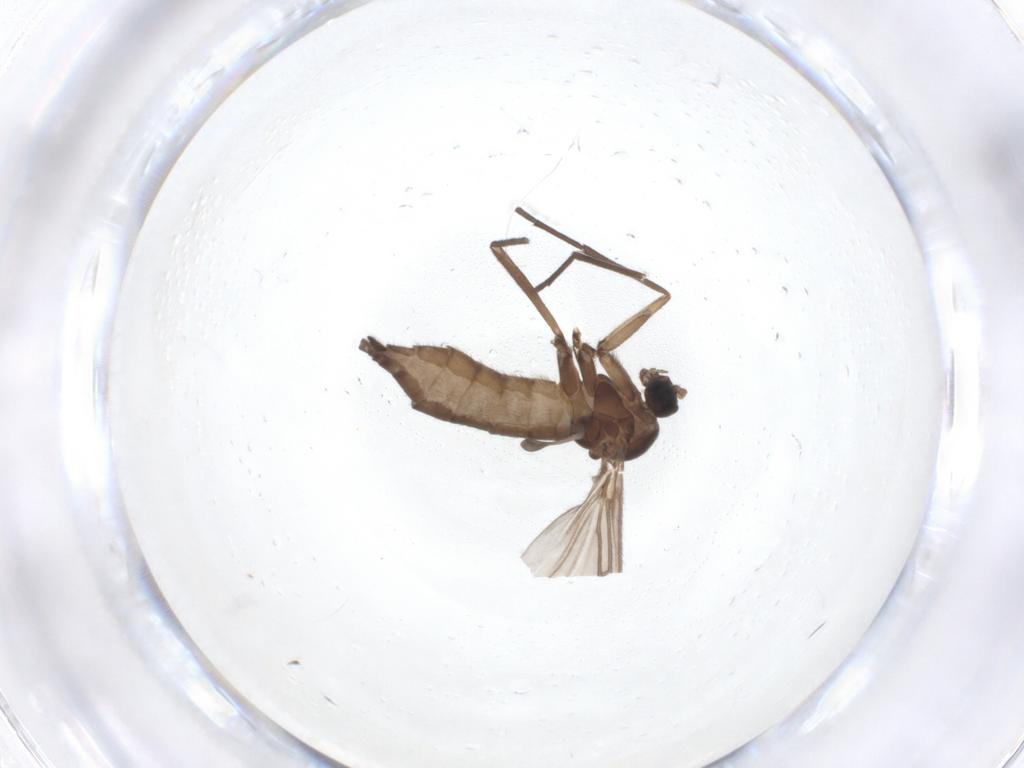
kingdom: Animalia
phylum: Arthropoda
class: Insecta
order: Diptera
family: Sciaridae
